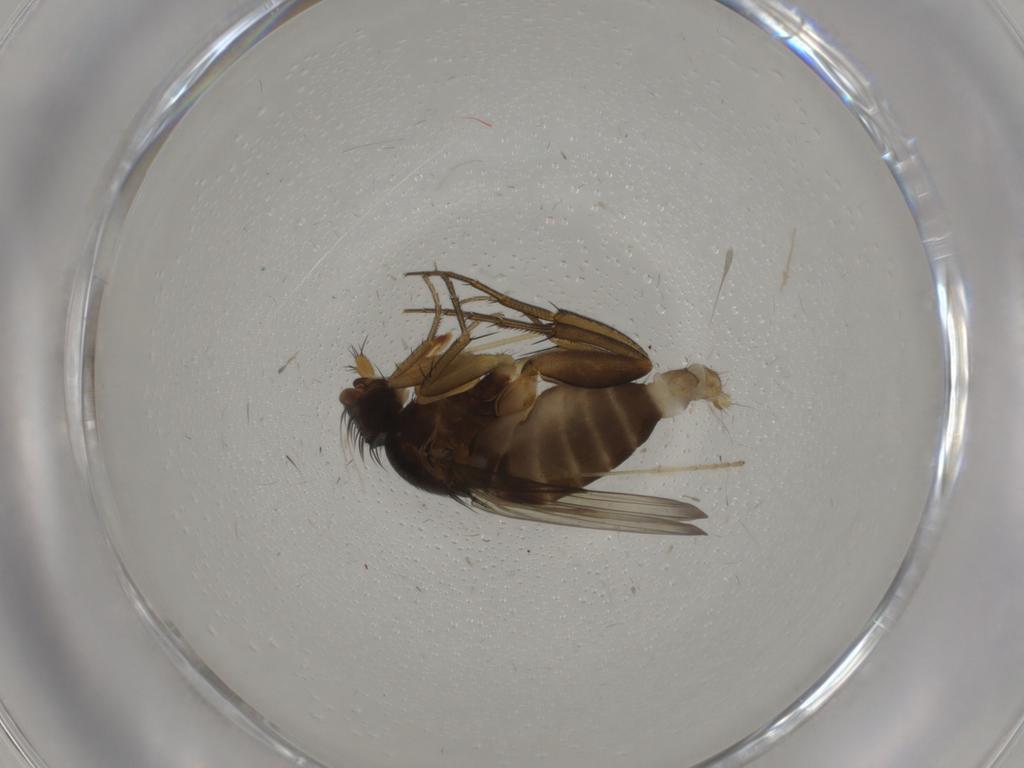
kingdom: Animalia
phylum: Arthropoda
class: Insecta
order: Diptera
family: Phoridae
